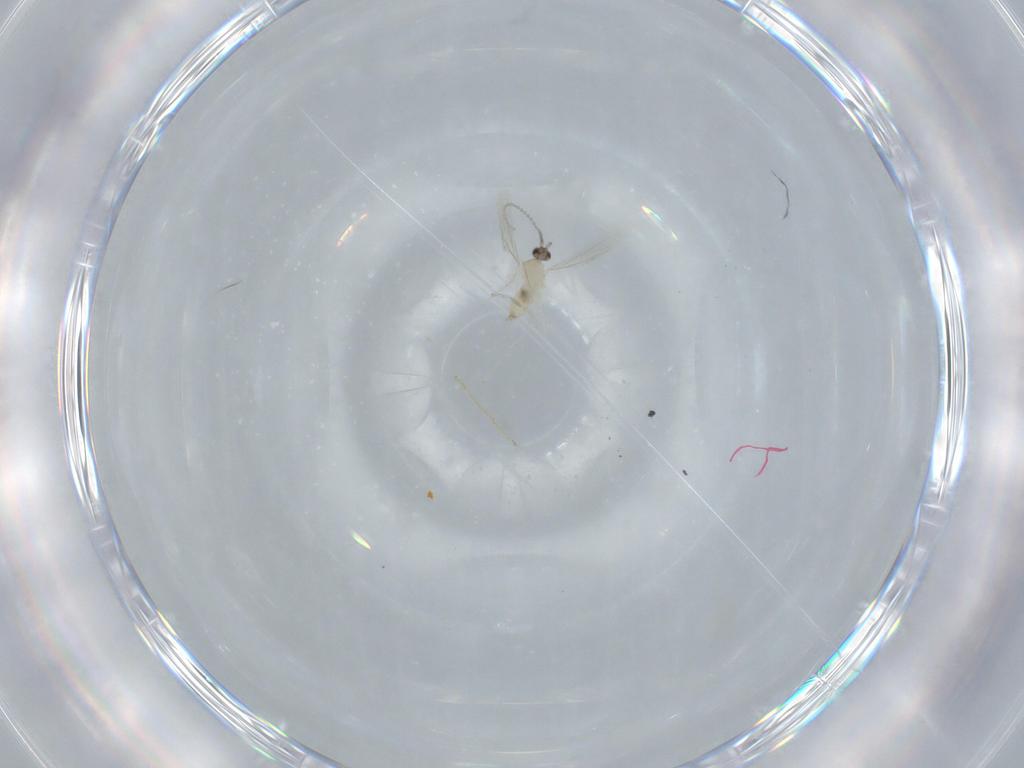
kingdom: Animalia
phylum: Arthropoda
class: Insecta
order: Diptera
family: Cecidomyiidae
